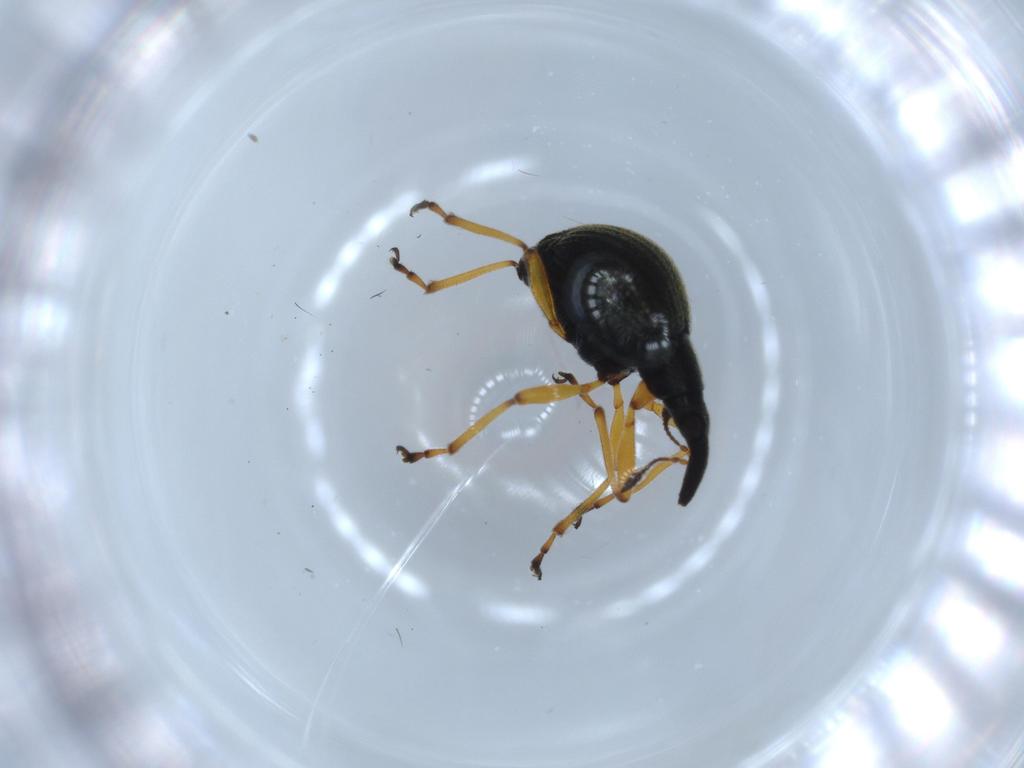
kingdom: Animalia
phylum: Arthropoda
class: Insecta
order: Coleoptera
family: Brentidae
